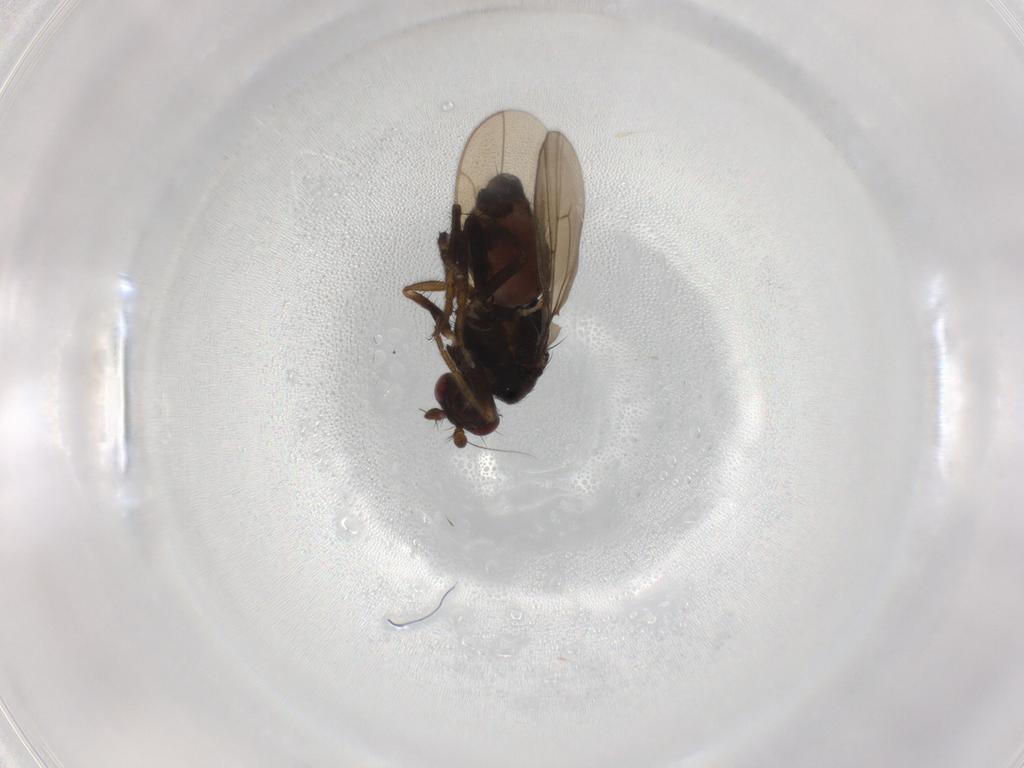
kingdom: Animalia
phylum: Arthropoda
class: Insecta
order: Diptera
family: Sphaeroceridae
